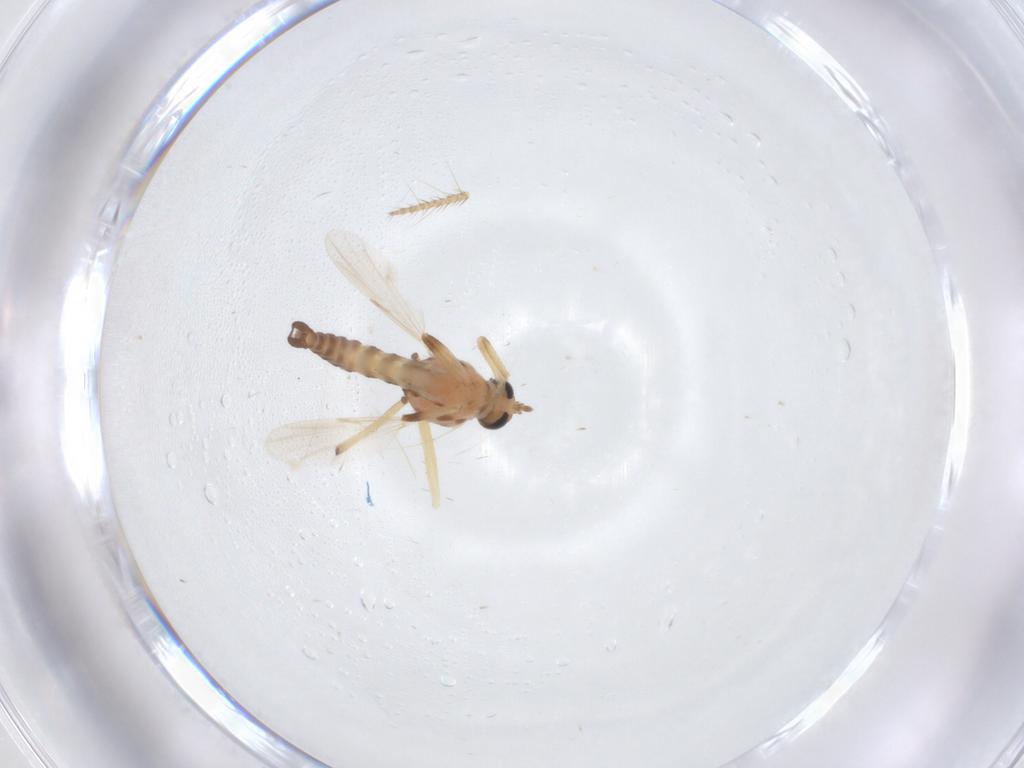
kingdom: Animalia
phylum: Arthropoda
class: Insecta
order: Diptera
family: Ceratopogonidae
